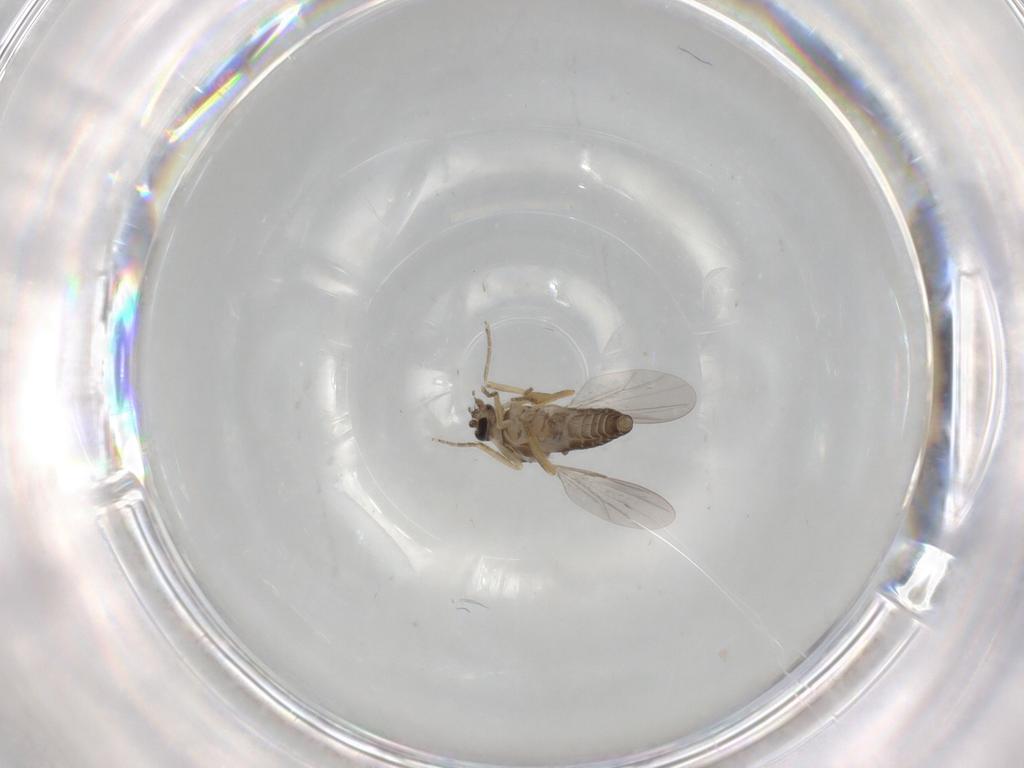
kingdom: Animalia
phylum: Arthropoda
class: Insecta
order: Diptera
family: Ceratopogonidae
